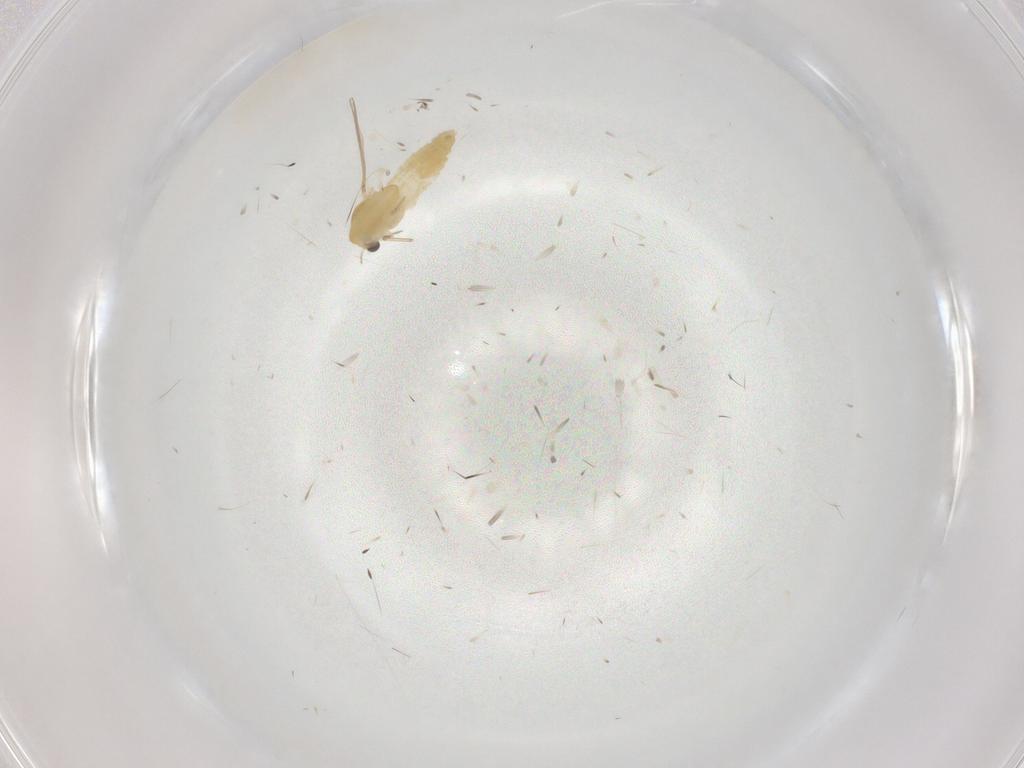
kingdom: Animalia
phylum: Arthropoda
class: Insecta
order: Diptera
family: Chironomidae
